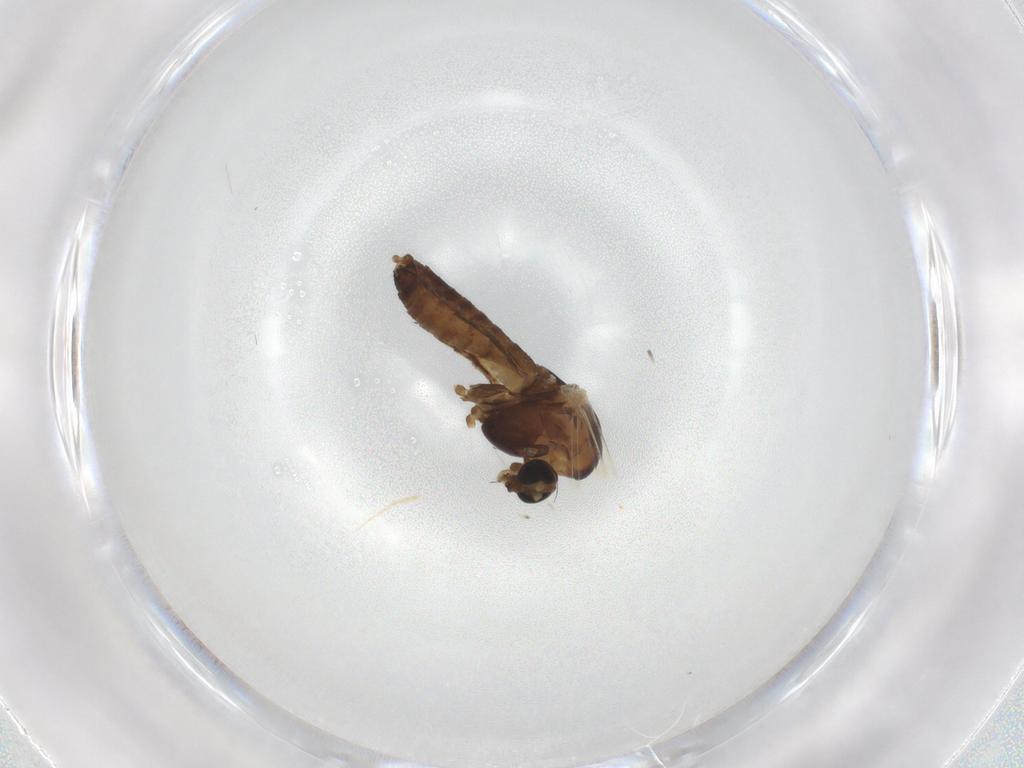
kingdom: Animalia
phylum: Arthropoda
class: Insecta
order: Diptera
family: Chironomidae
